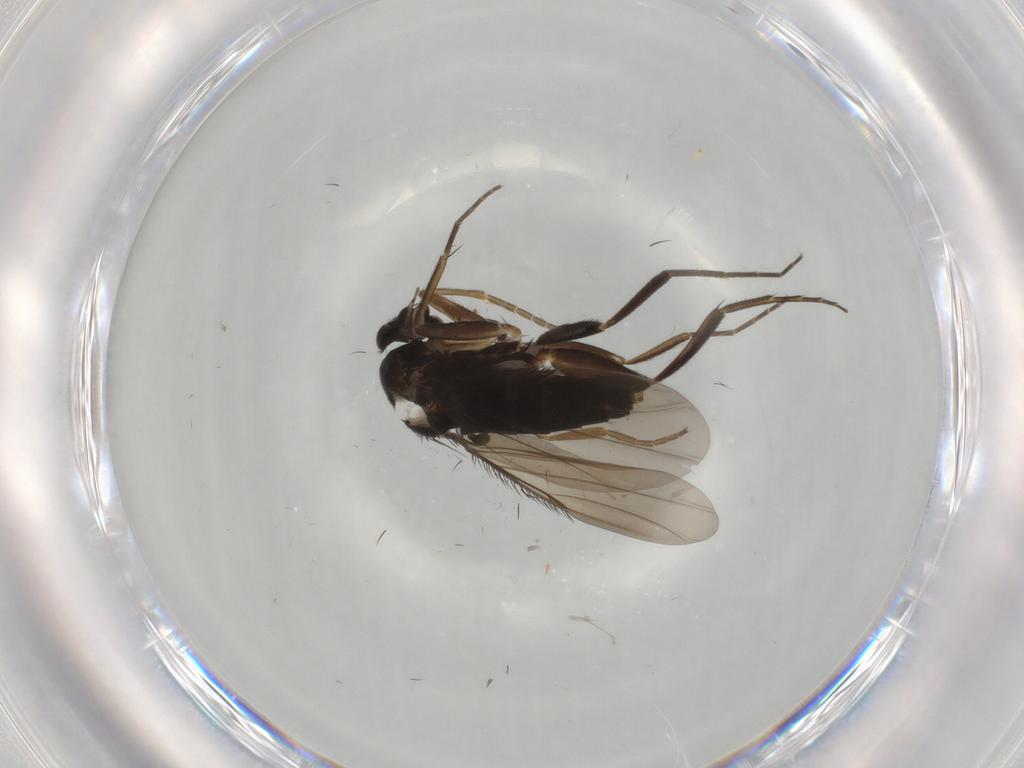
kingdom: Animalia
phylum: Arthropoda
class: Insecta
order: Diptera
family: Phoridae
